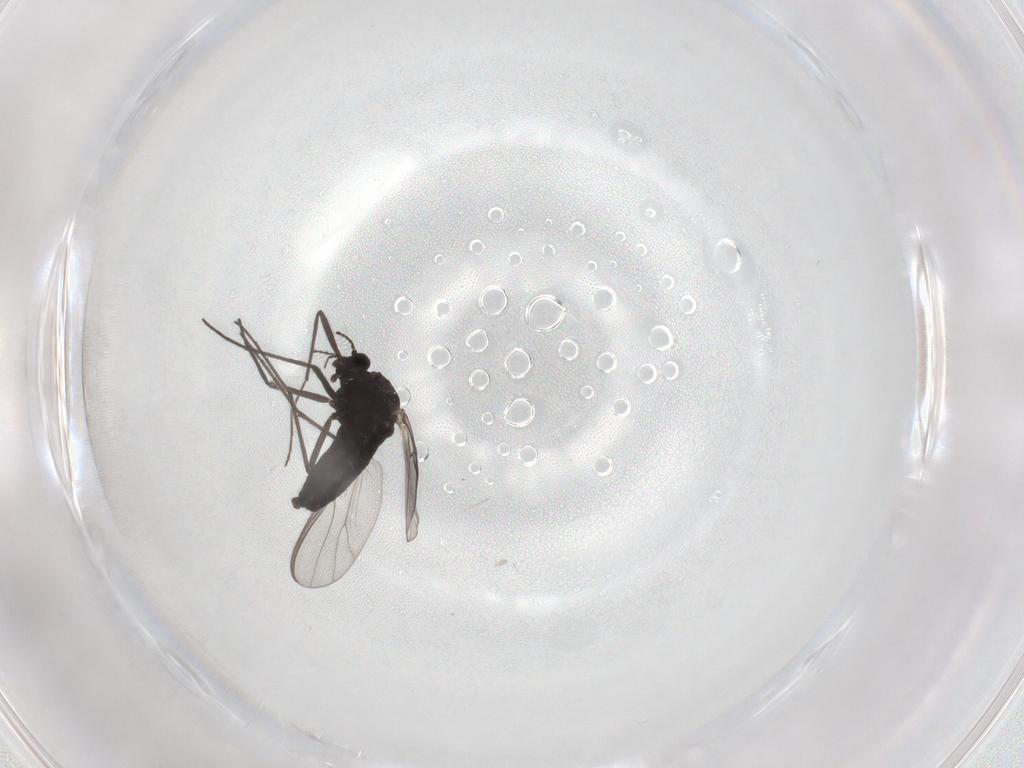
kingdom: Animalia
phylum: Arthropoda
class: Insecta
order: Diptera
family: Chironomidae
